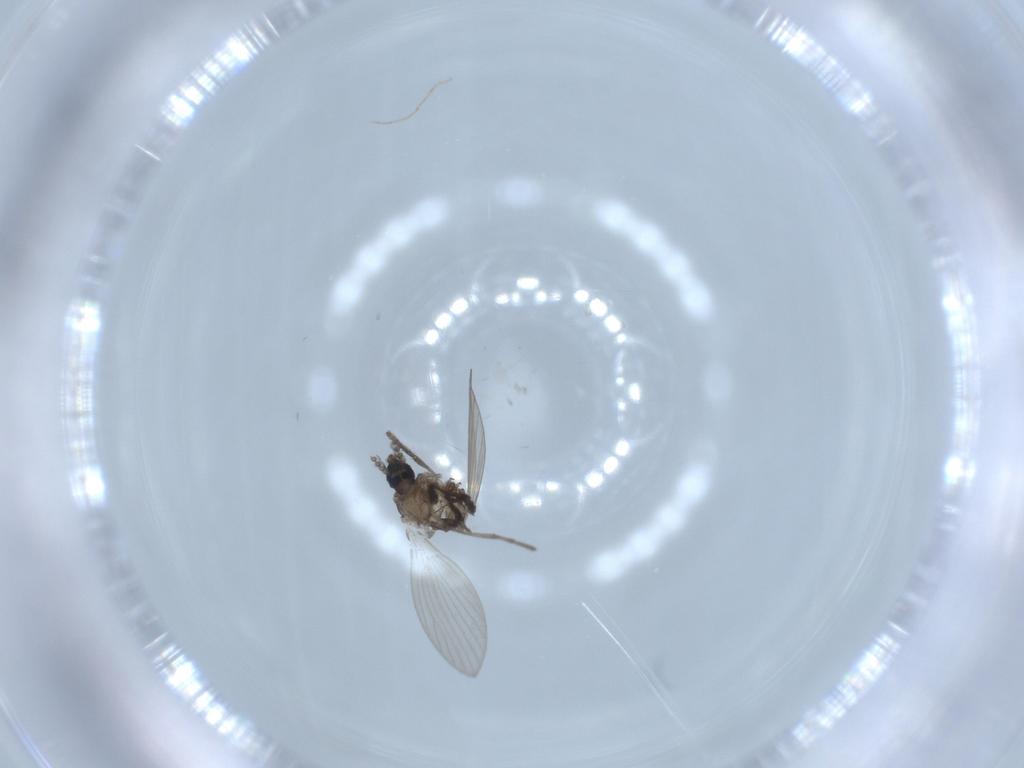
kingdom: Animalia
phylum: Arthropoda
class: Insecta
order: Diptera
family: Psychodidae
